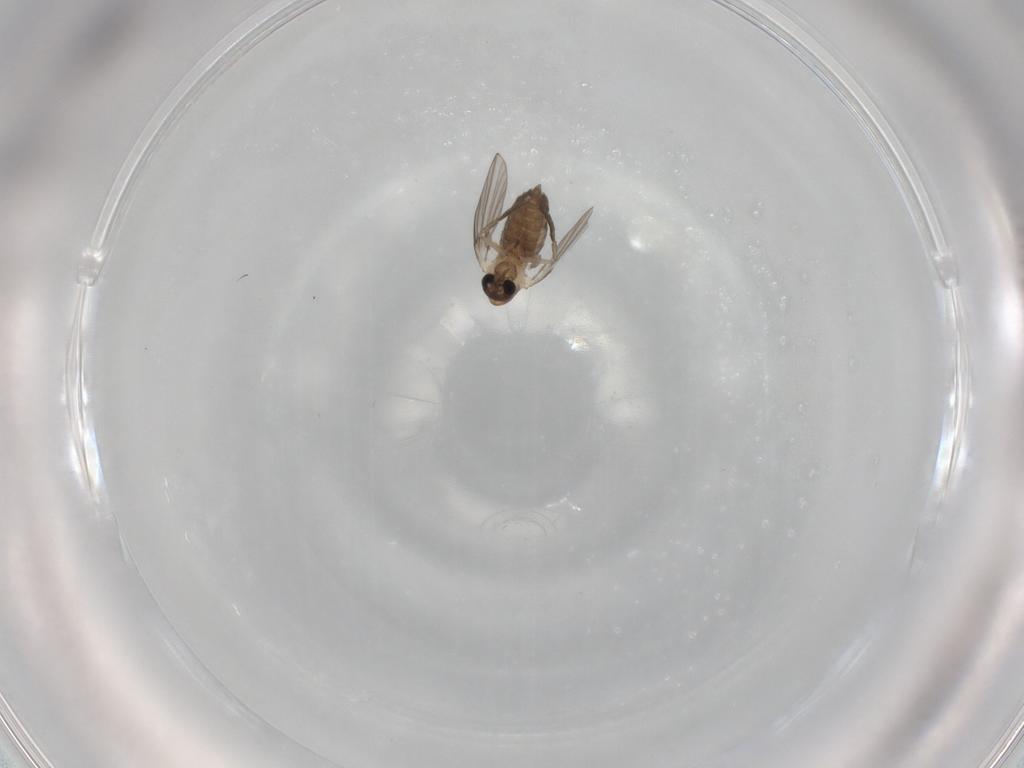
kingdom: Animalia
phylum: Arthropoda
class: Insecta
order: Diptera
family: Psychodidae
